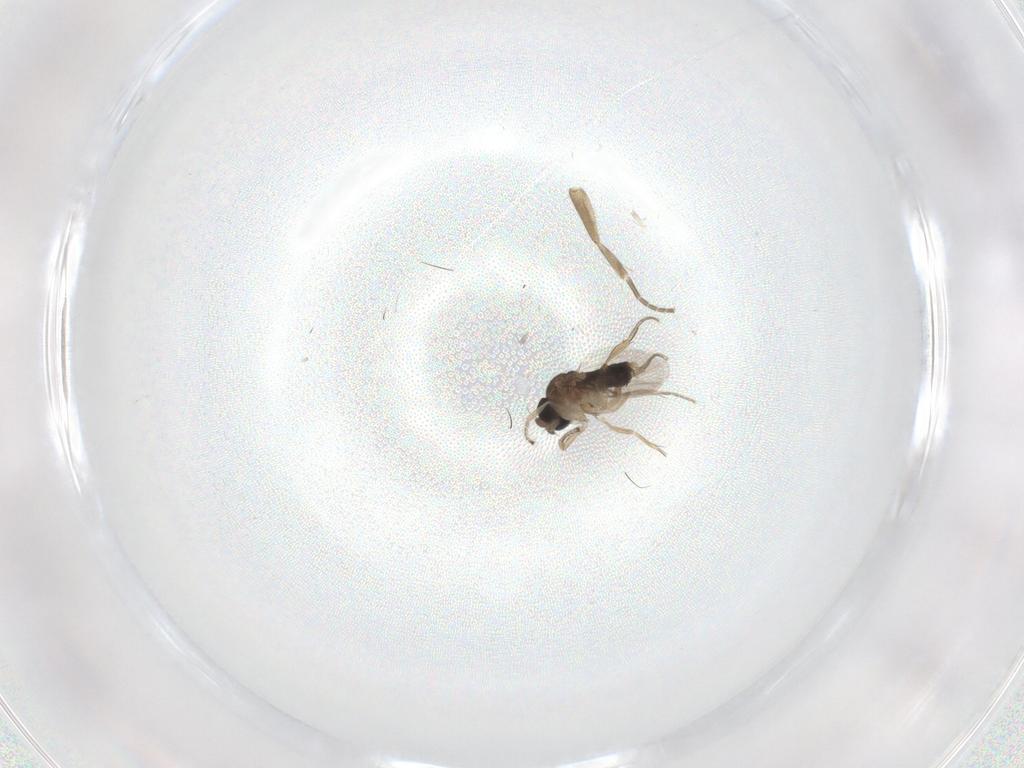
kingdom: Animalia
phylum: Arthropoda
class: Insecta
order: Diptera
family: Phoridae
